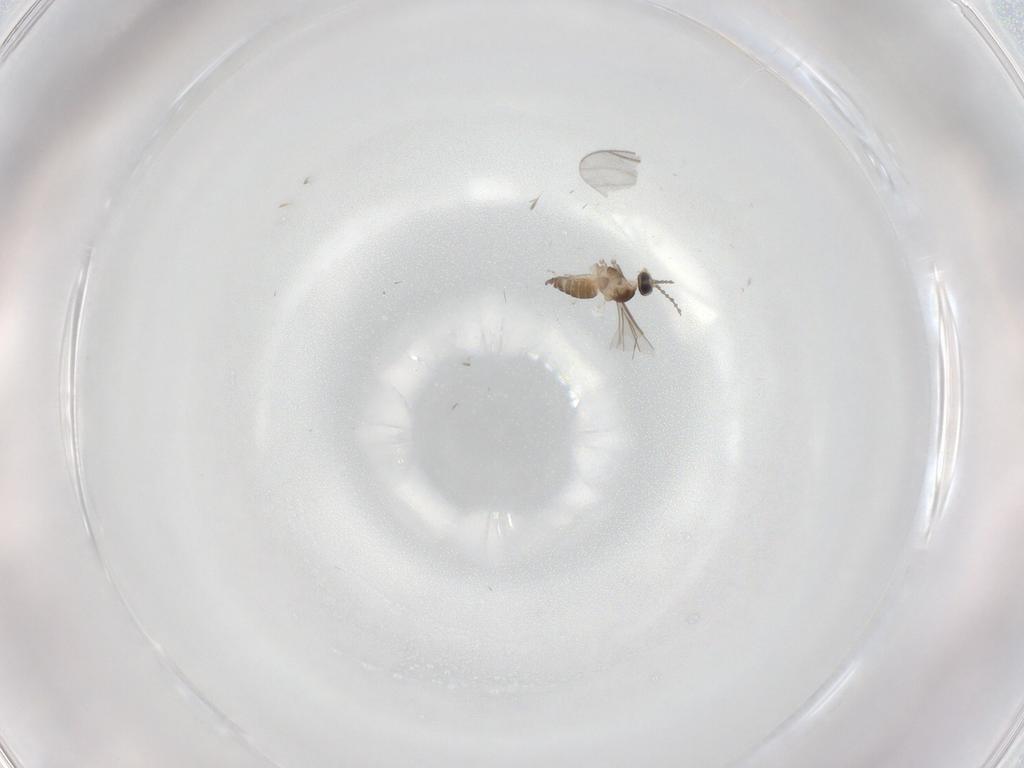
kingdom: Animalia
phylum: Arthropoda
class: Insecta
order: Diptera
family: Cecidomyiidae
